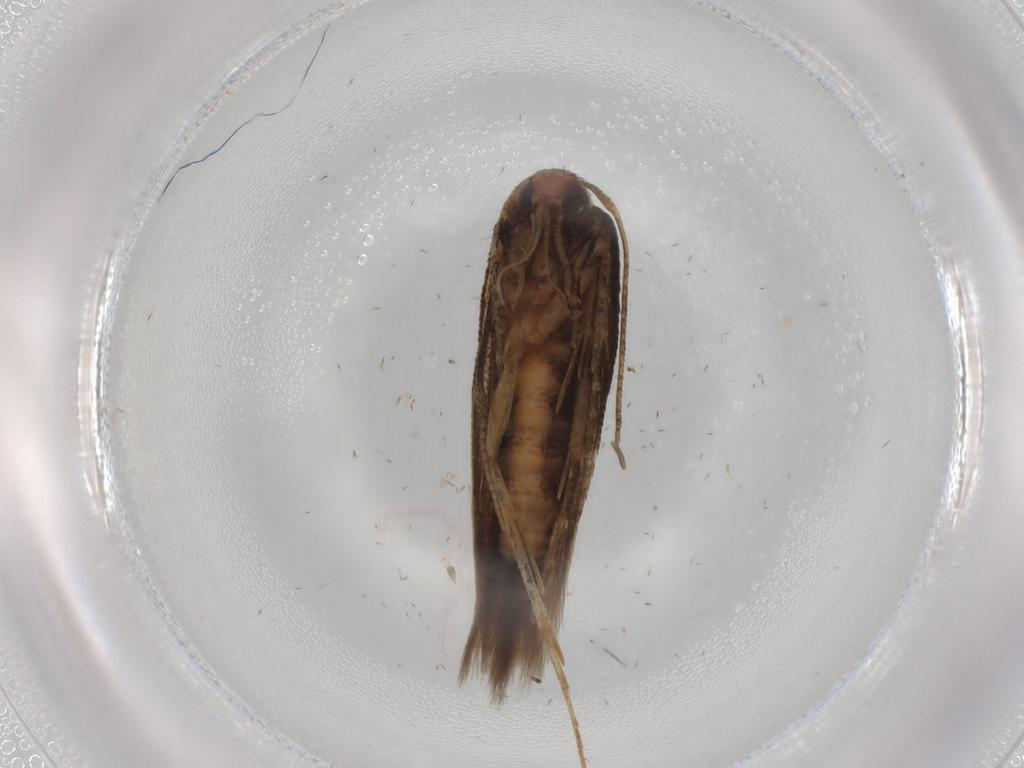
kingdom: Animalia
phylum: Arthropoda
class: Insecta
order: Lepidoptera
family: Cosmopterigidae
